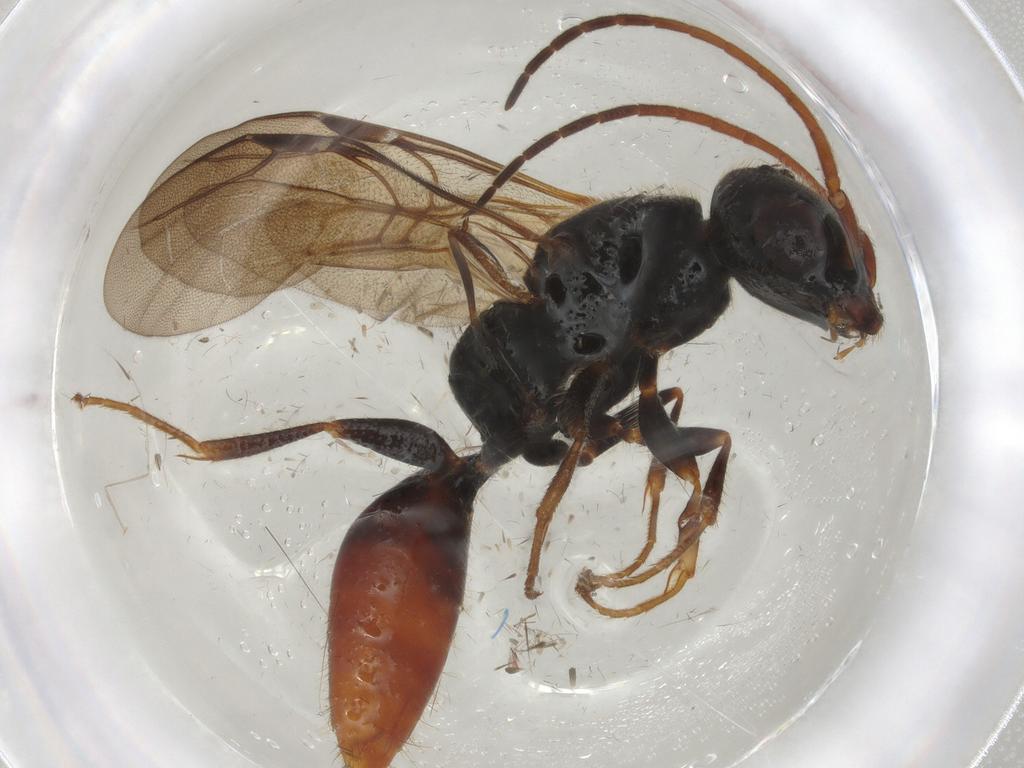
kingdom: Animalia
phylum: Arthropoda
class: Insecta
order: Hymenoptera
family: Bethylidae
